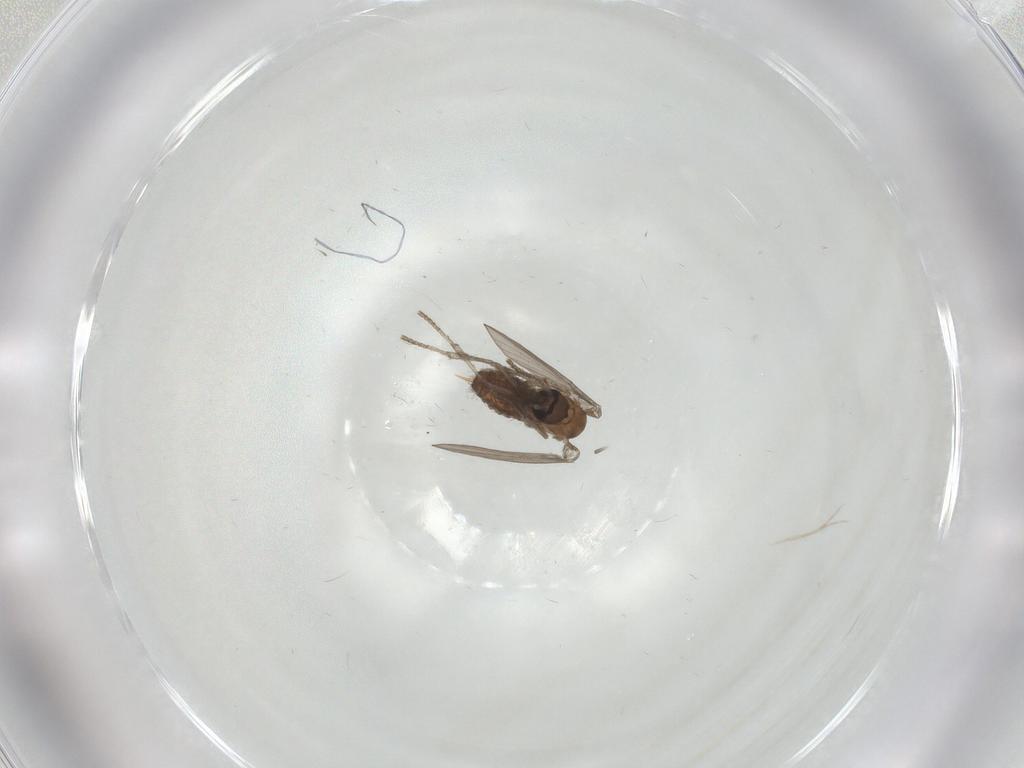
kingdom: Animalia
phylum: Arthropoda
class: Insecta
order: Diptera
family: Psychodidae
